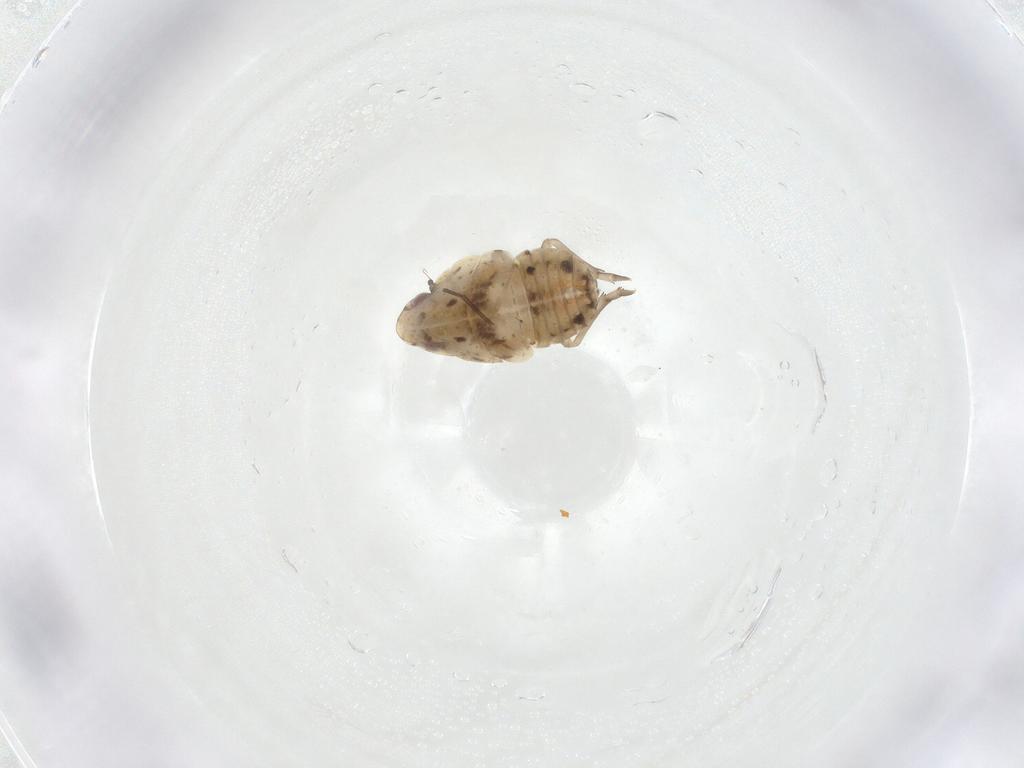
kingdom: Animalia
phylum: Arthropoda
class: Insecta
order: Hemiptera
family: Flatidae
